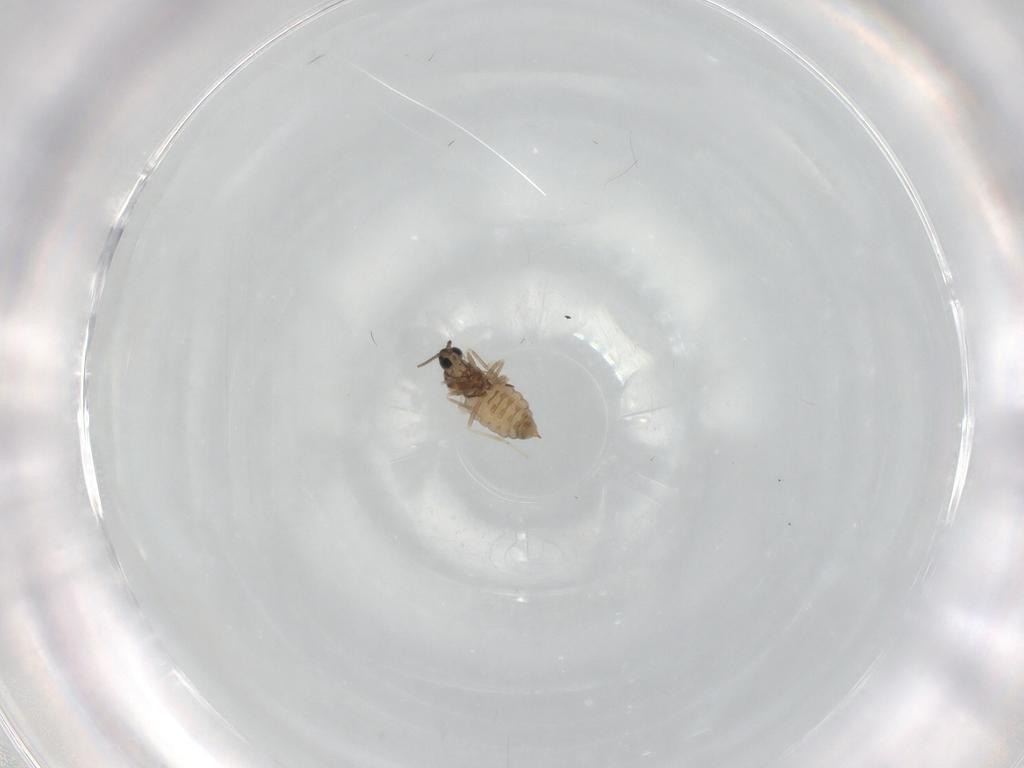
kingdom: Animalia
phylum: Arthropoda
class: Insecta
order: Diptera
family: Cecidomyiidae
